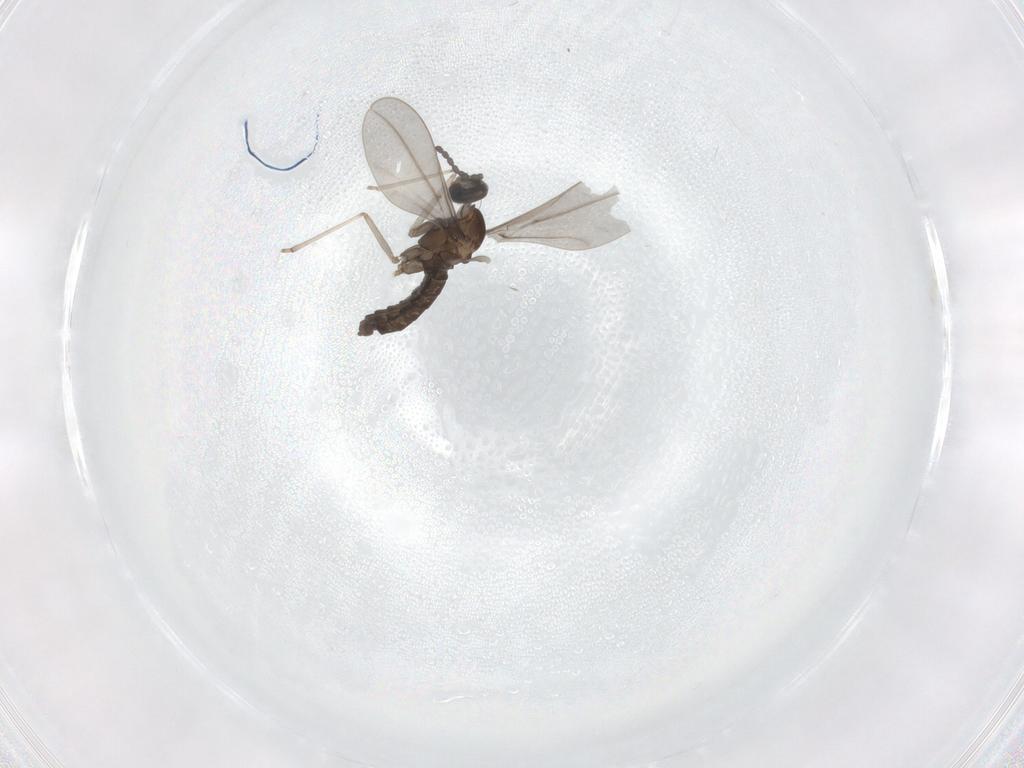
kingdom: Animalia
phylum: Arthropoda
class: Insecta
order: Diptera
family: Cecidomyiidae
